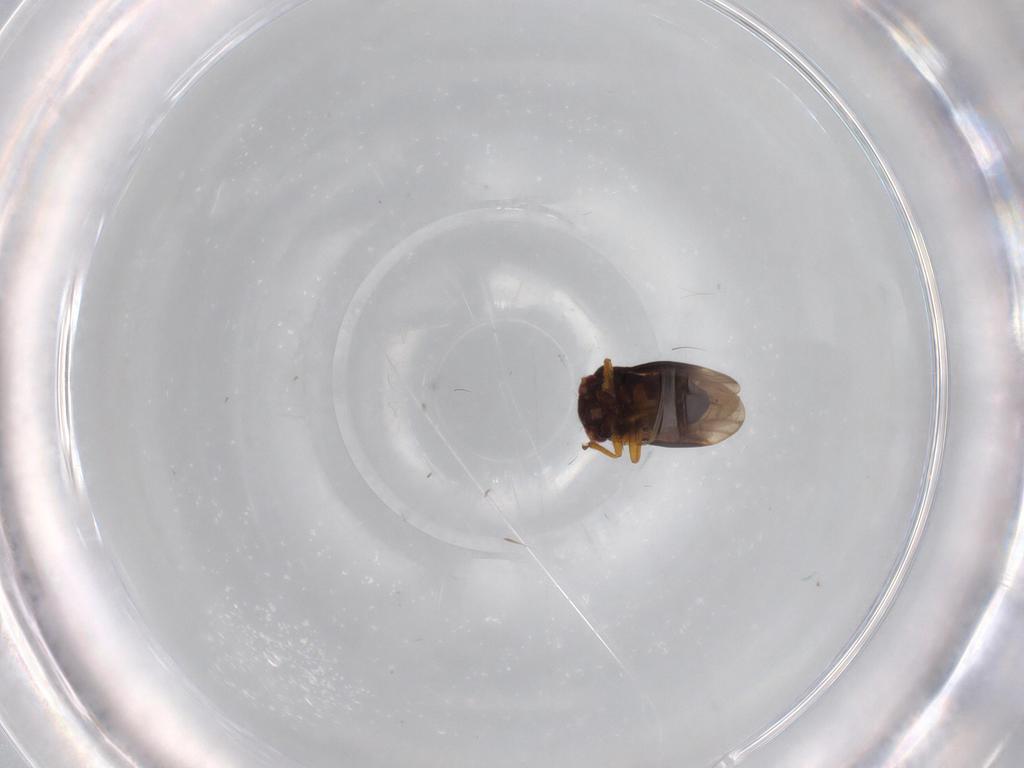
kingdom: Animalia
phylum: Arthropoda
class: Insecta
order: Hemiptera
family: Schizopteridae
